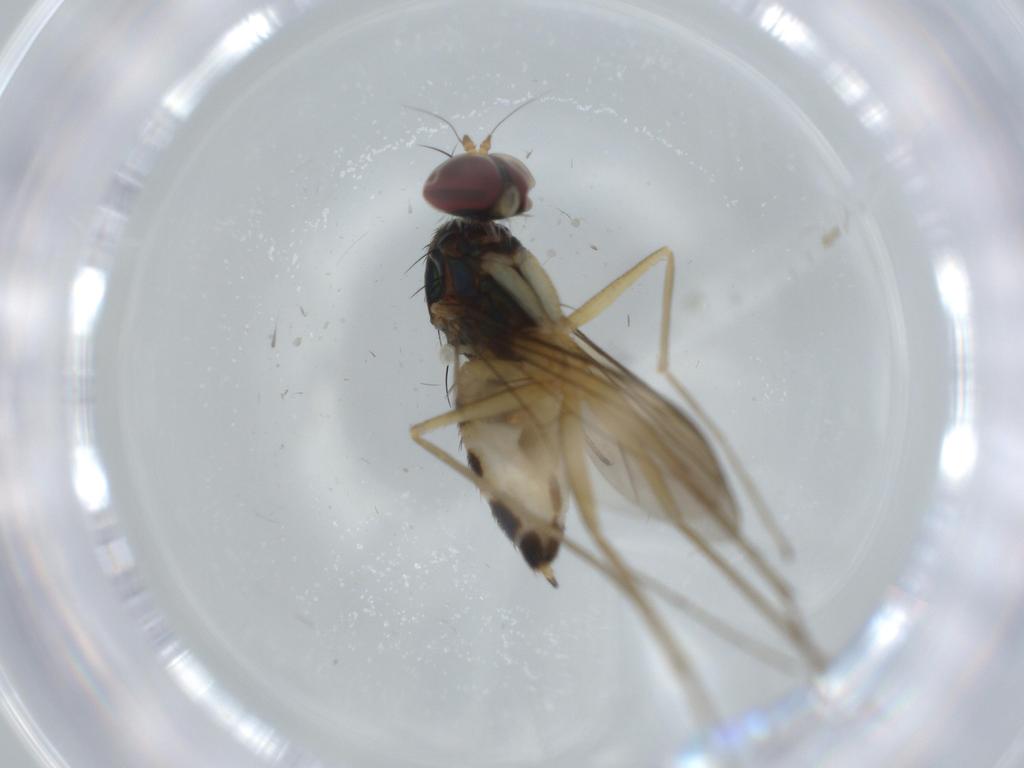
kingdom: Animalia
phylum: Arthropoda
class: Insecta
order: Diptera
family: Dolichopodidae
